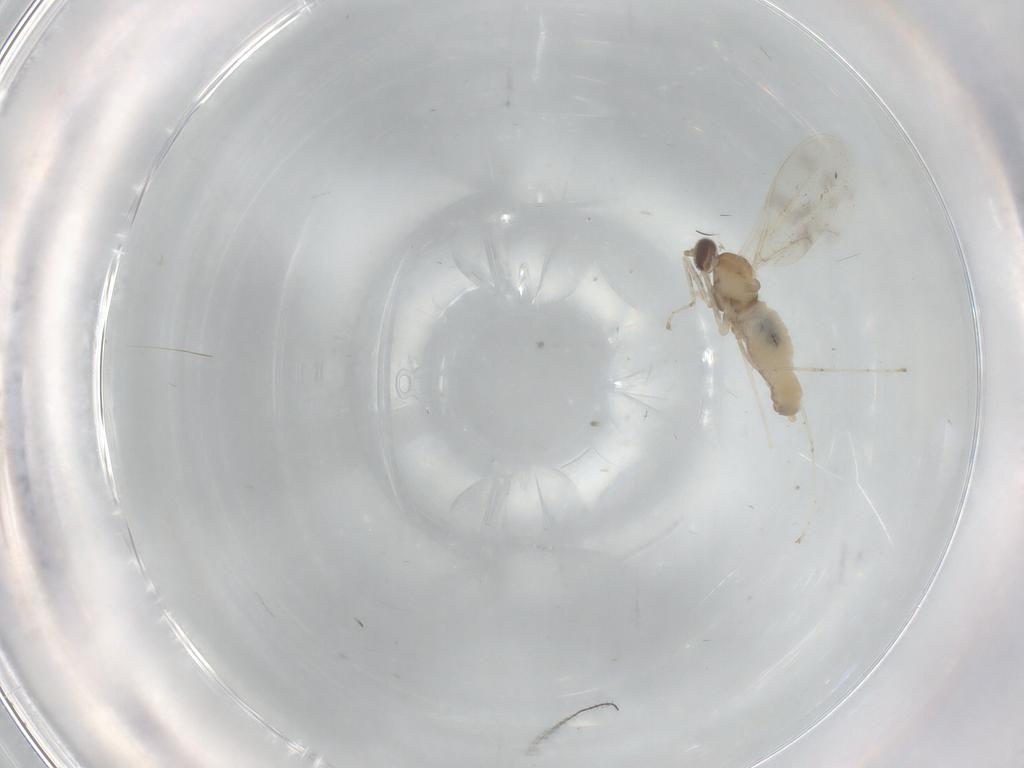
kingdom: Animalia
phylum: Arthropoda
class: Insecta
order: Diptera
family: Cecidomyiidae
